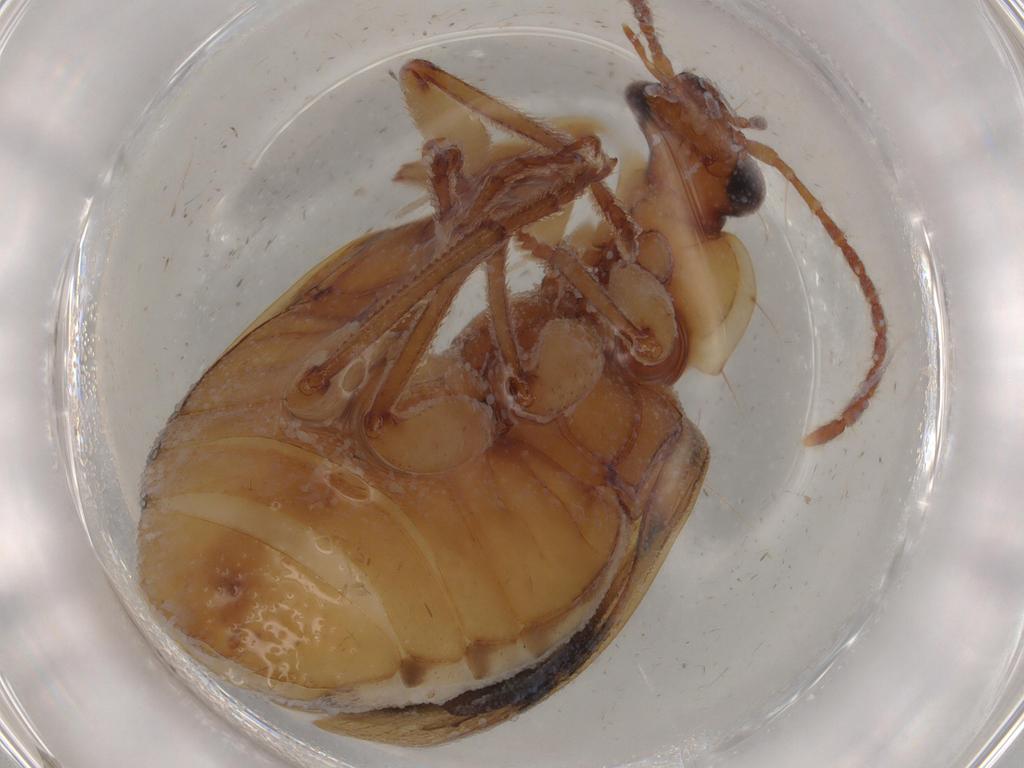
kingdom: Animalia
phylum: Arthropoda
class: Insecta
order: Coleoptera
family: Carabidae
